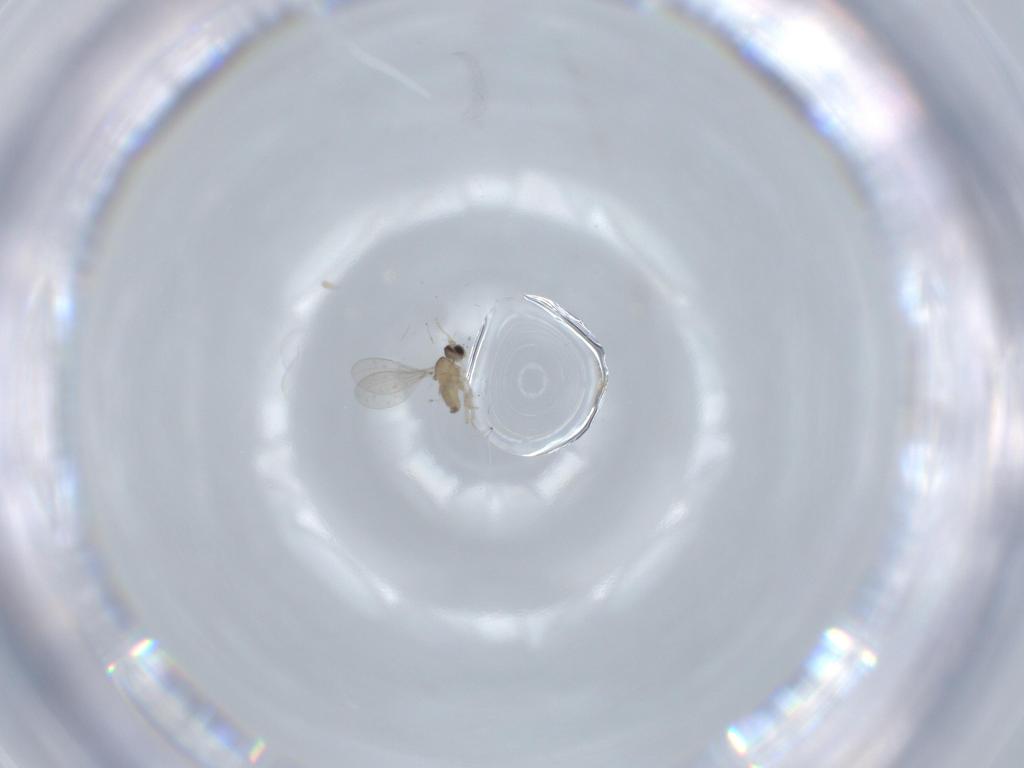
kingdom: Animalia
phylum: Arthropoda
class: Insecta
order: Diptera
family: Cecidomyiidae
